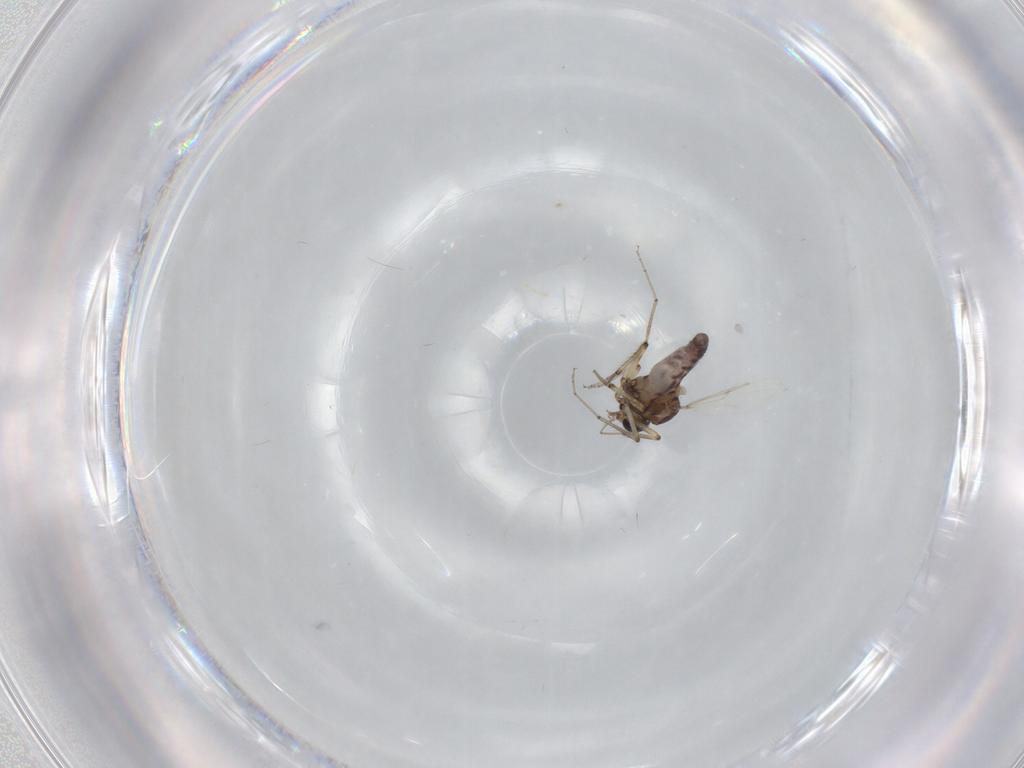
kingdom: Animalia
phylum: Arthropoda
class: Insecta
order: Diptera
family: Ceratopogonidae
